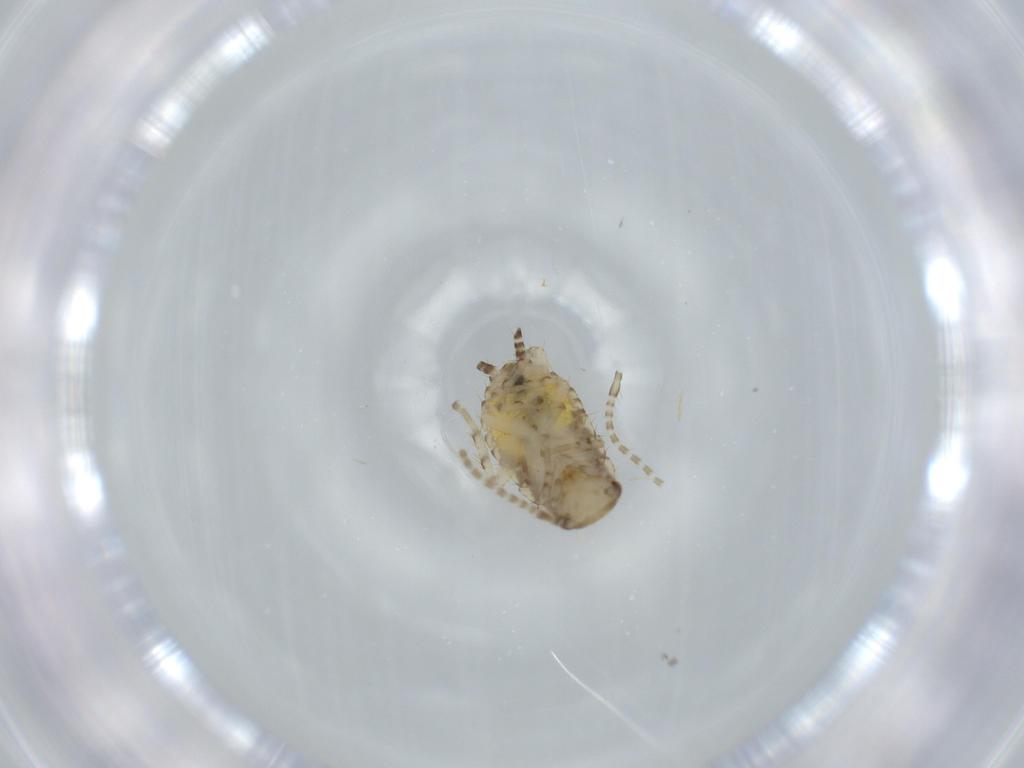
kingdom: Animalia
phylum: Arthropoda
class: Insecta
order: Blattodea
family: Ectobiidae
